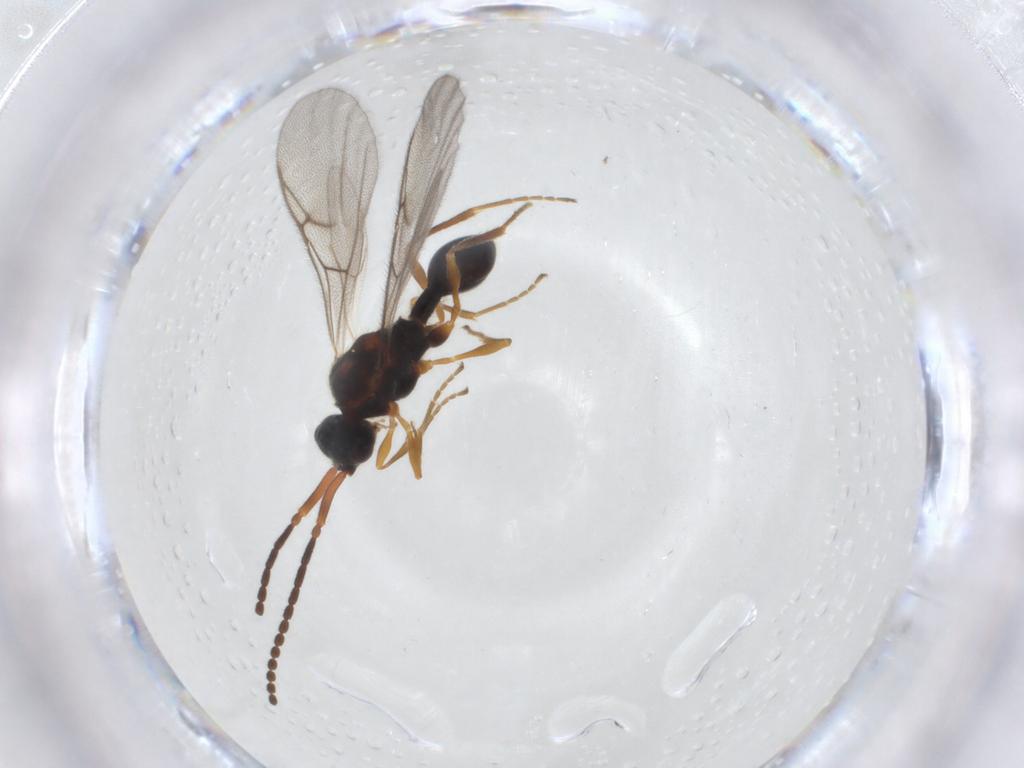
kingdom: Animalia
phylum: Arthropoda
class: Insecta
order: Hymenoptera
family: Diapriidae
